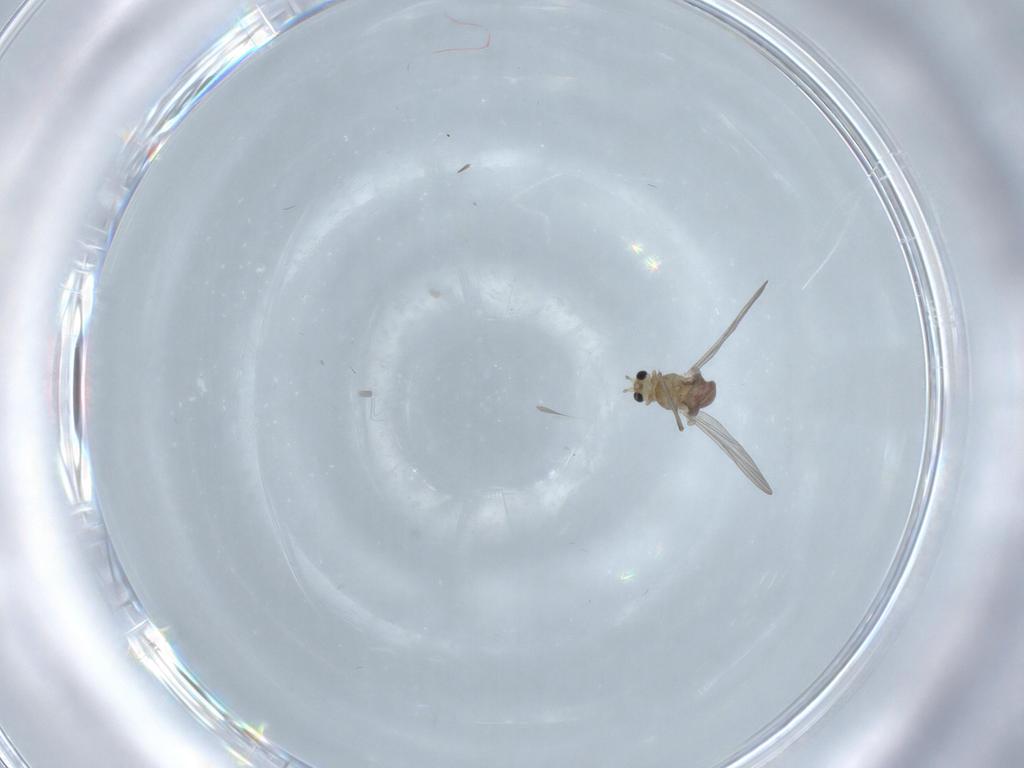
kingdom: Animalia
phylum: Arthropoda
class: Insecta
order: Diptera
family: Chironomidae
